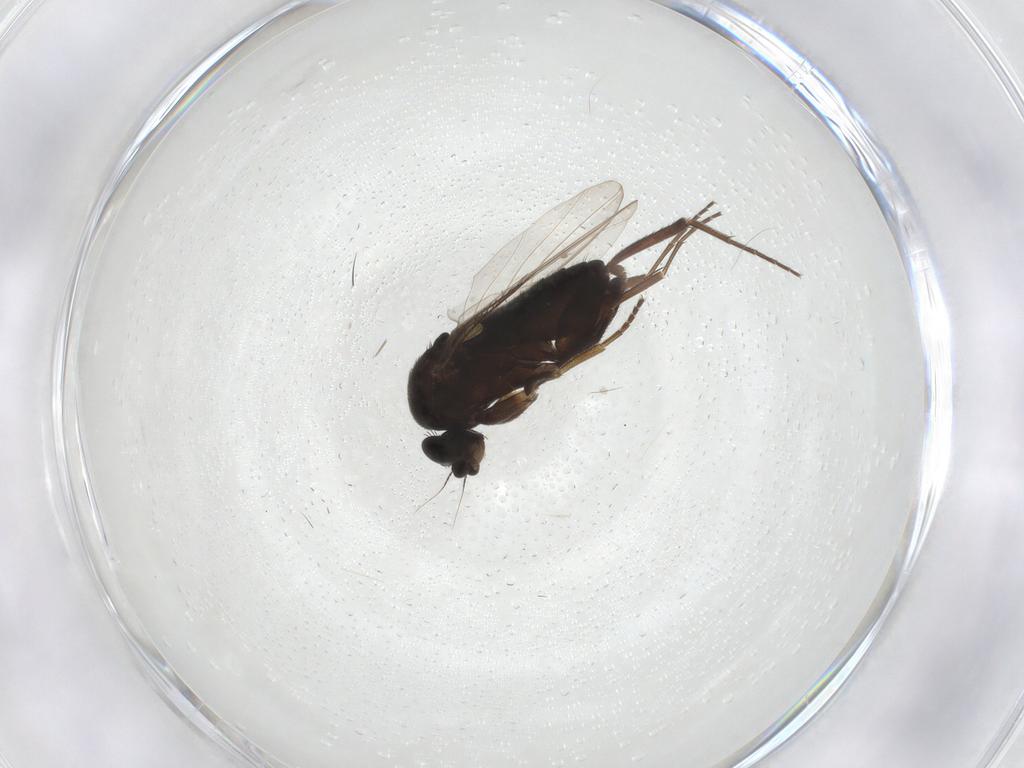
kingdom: Animalia
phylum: Arthropoda
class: Insecta
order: Diptera
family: Phoridae
